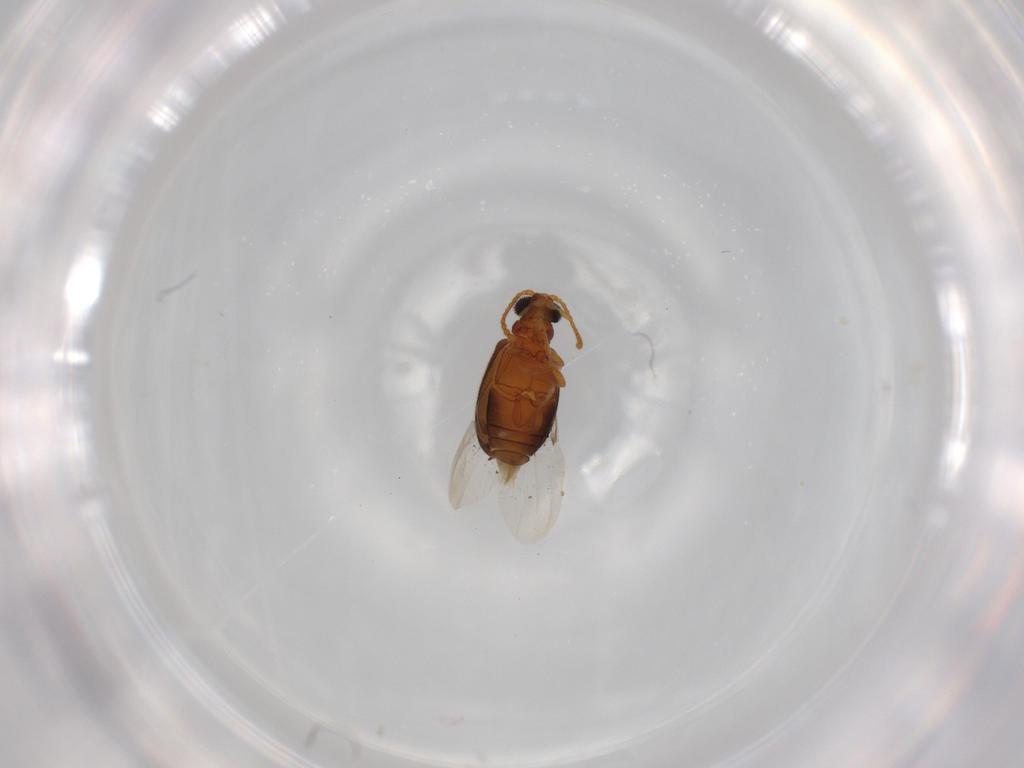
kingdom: Animalia
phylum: Arthropoda
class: Insecta
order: Coleoptera
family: Aderidae
